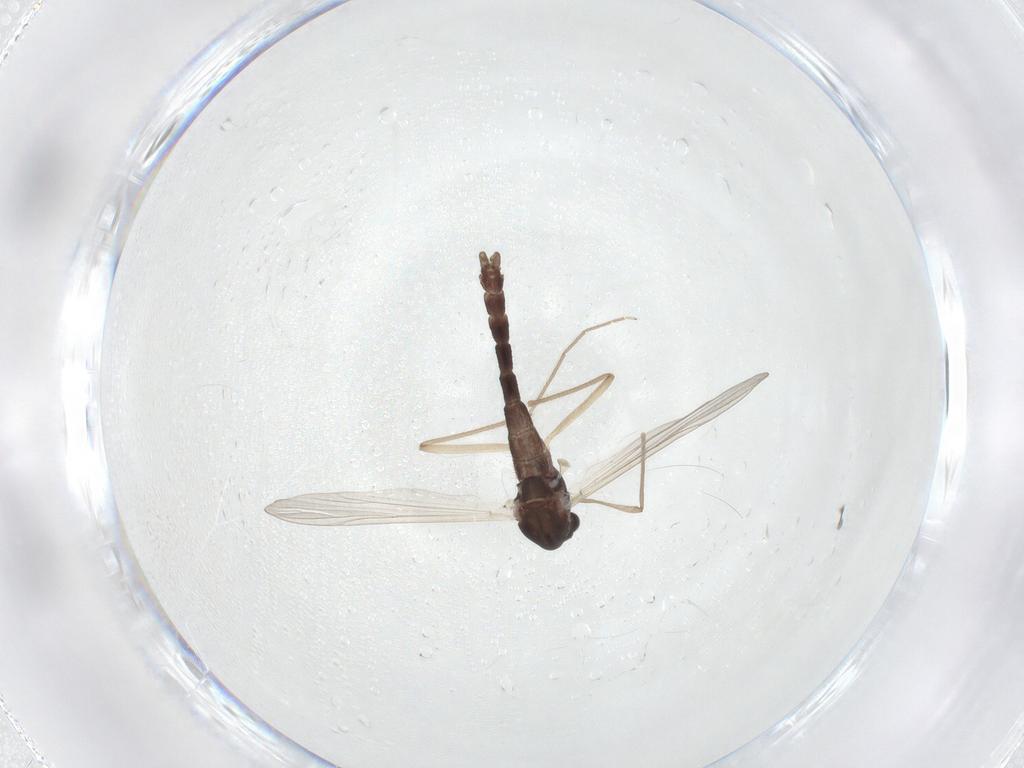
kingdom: Animalia
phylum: Arthropoda
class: Insecta
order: Diptera
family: Chironomidae
